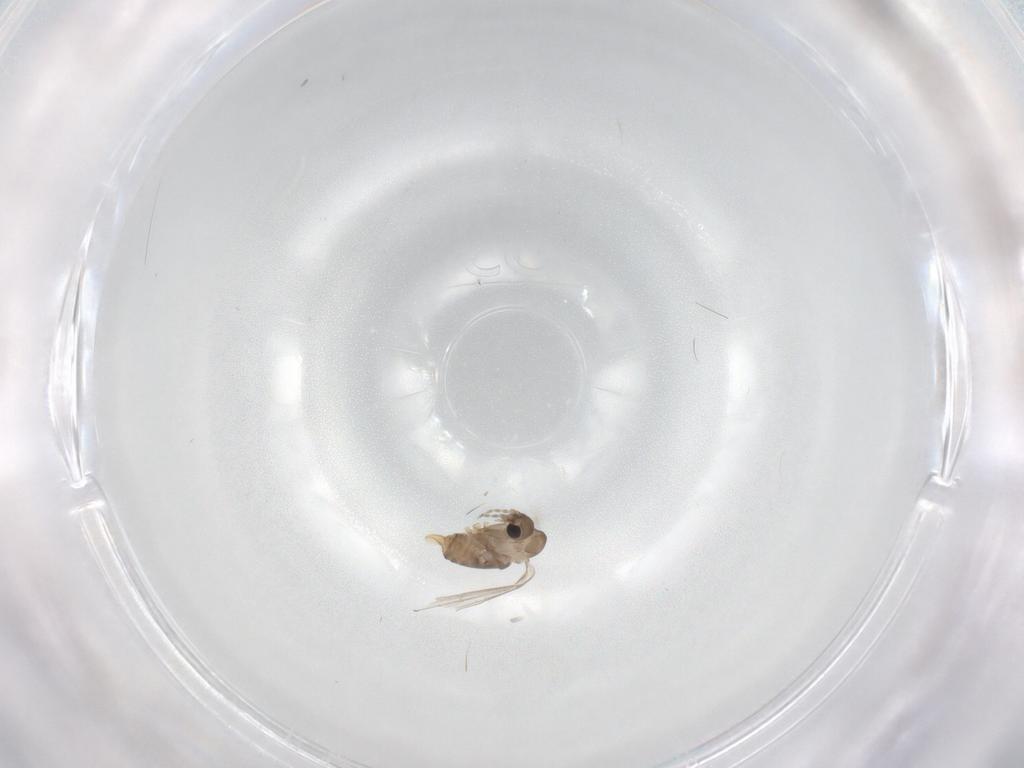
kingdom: Animalia
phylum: Arthropoda
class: Insecta
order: Diptera
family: Psychodidae
